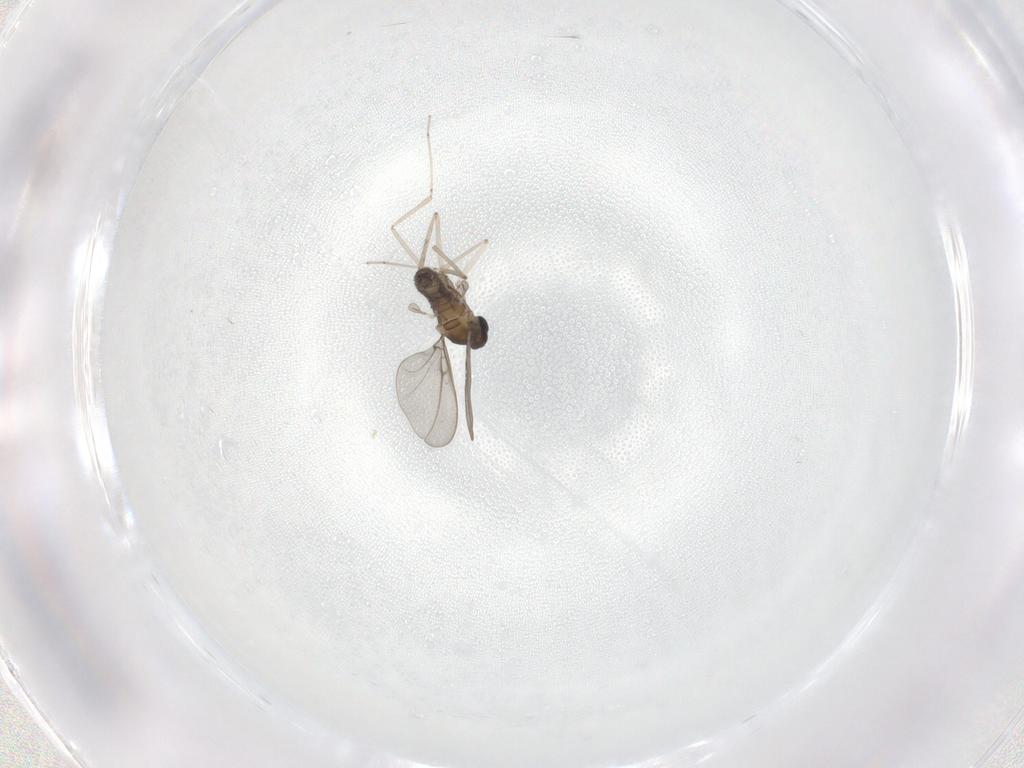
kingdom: Animalia
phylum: Arthropoda
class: Insecta
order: Diptera
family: Cecidomyiidae
